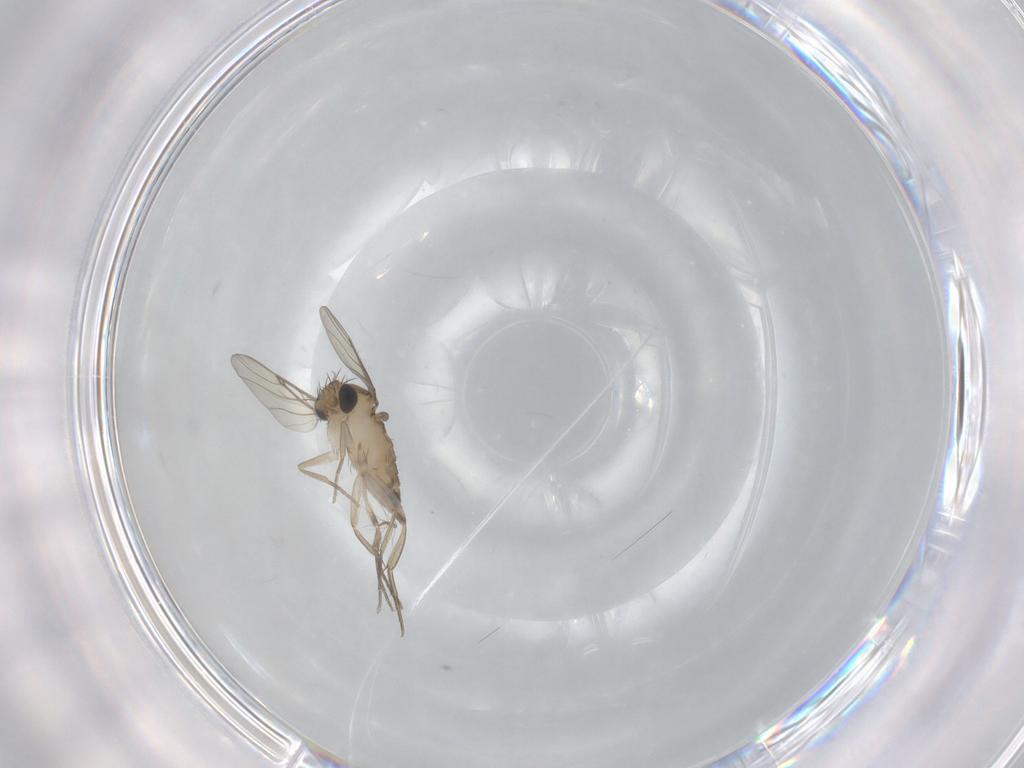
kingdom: Animalia
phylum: Arthropoda
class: Insecta
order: Diptera
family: Phoridae
